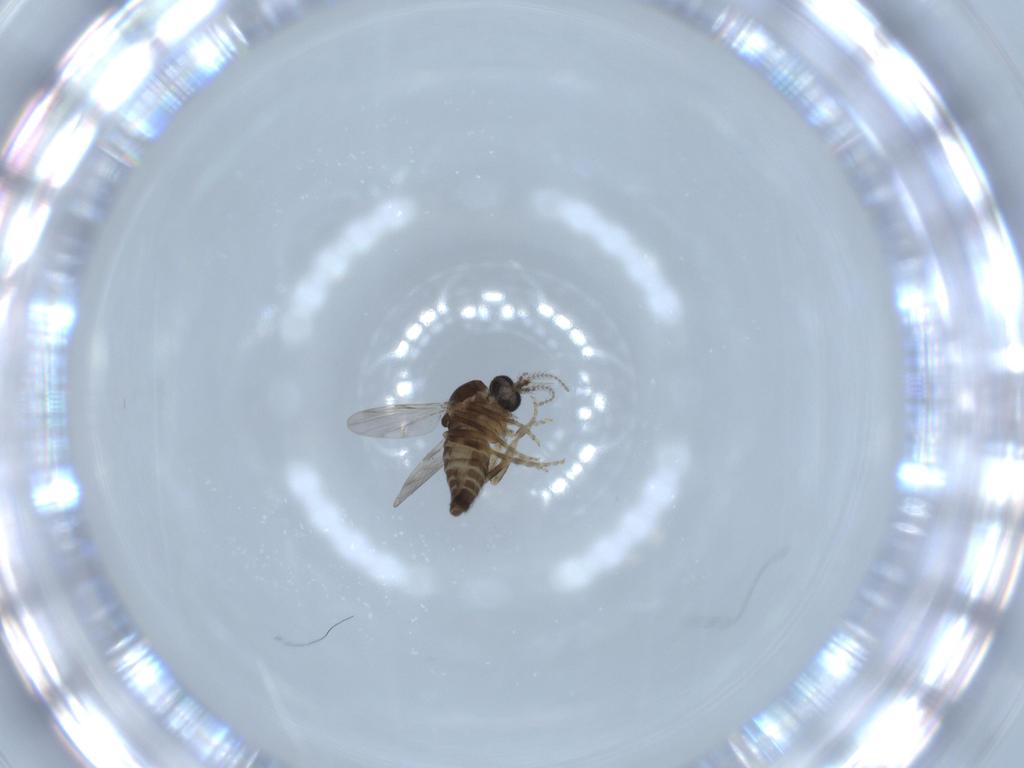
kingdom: Animalia
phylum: Arthropoda
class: Insecta
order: Diptera
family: Ceratopogonidae
